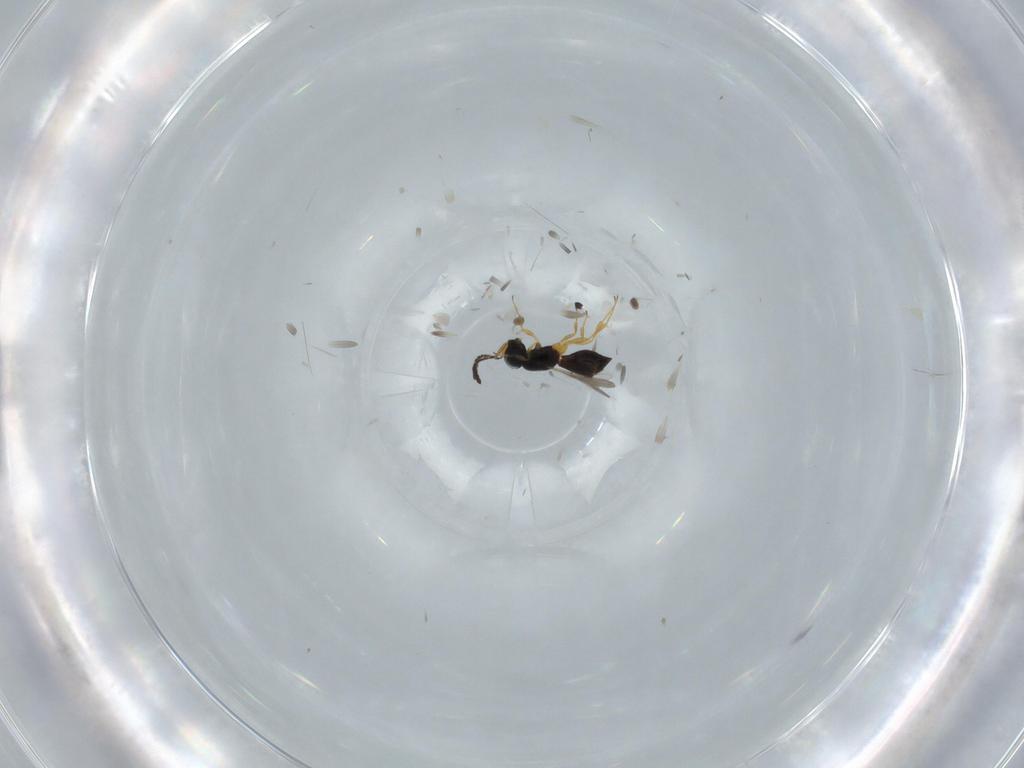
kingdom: Animalia
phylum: Arthropoda
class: Insecta
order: Hymenoptera
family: Scelionidae
